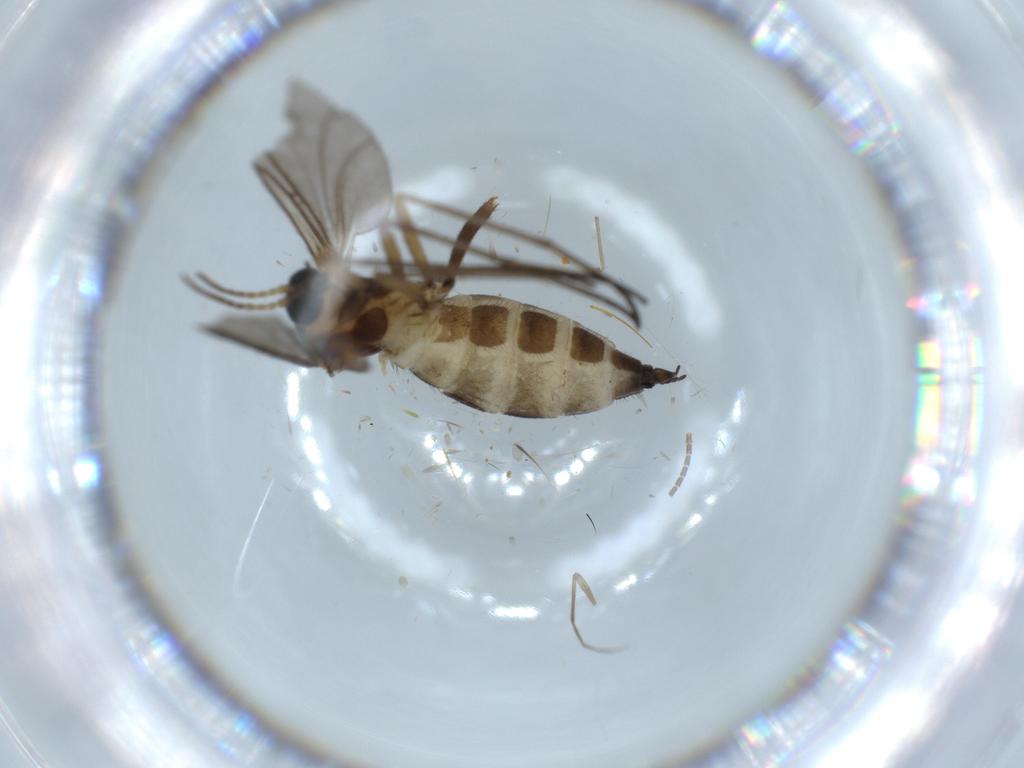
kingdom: Animalia
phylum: Arthropoda
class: Insecta
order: Diptera
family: Sciaridae
